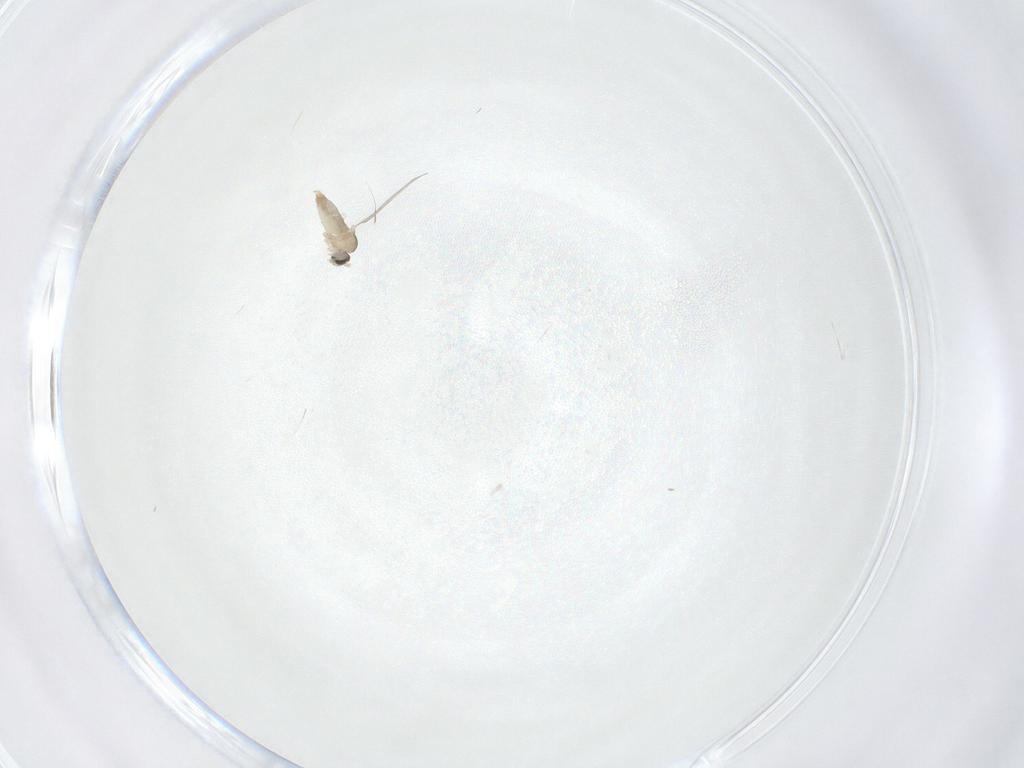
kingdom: Animalia
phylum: Arthropoda
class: Insecta
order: Diptera
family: Cecidomyiidae
